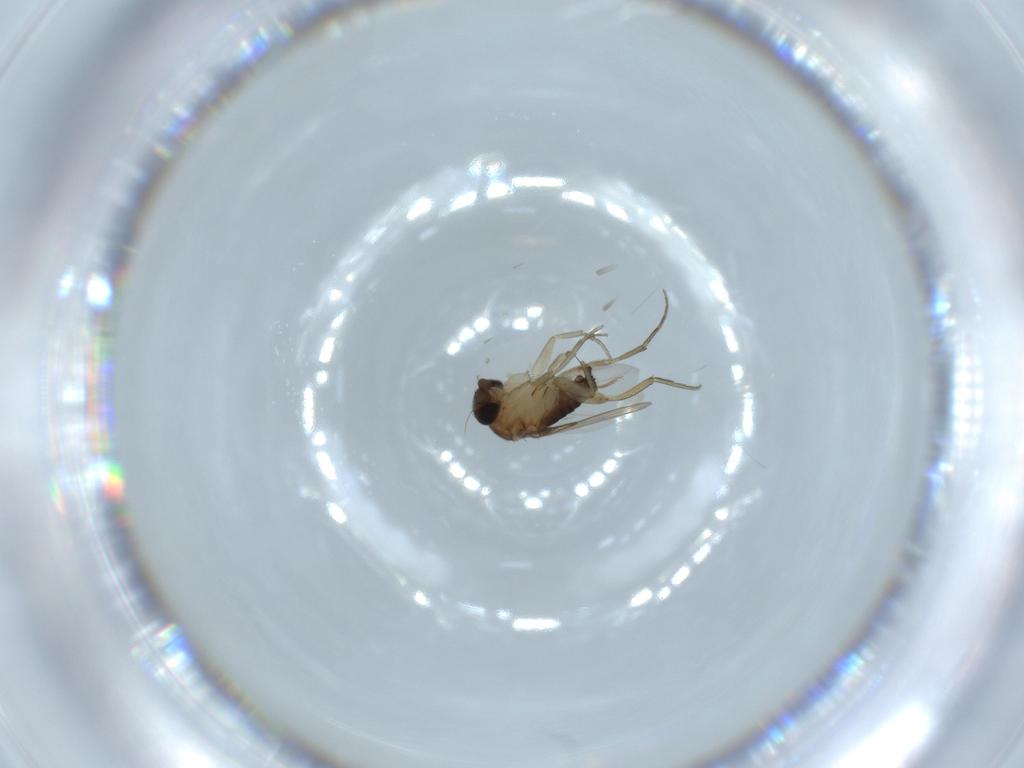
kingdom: Animalia
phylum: Arthropoda
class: Insecta
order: Diptera
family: Phoridae
